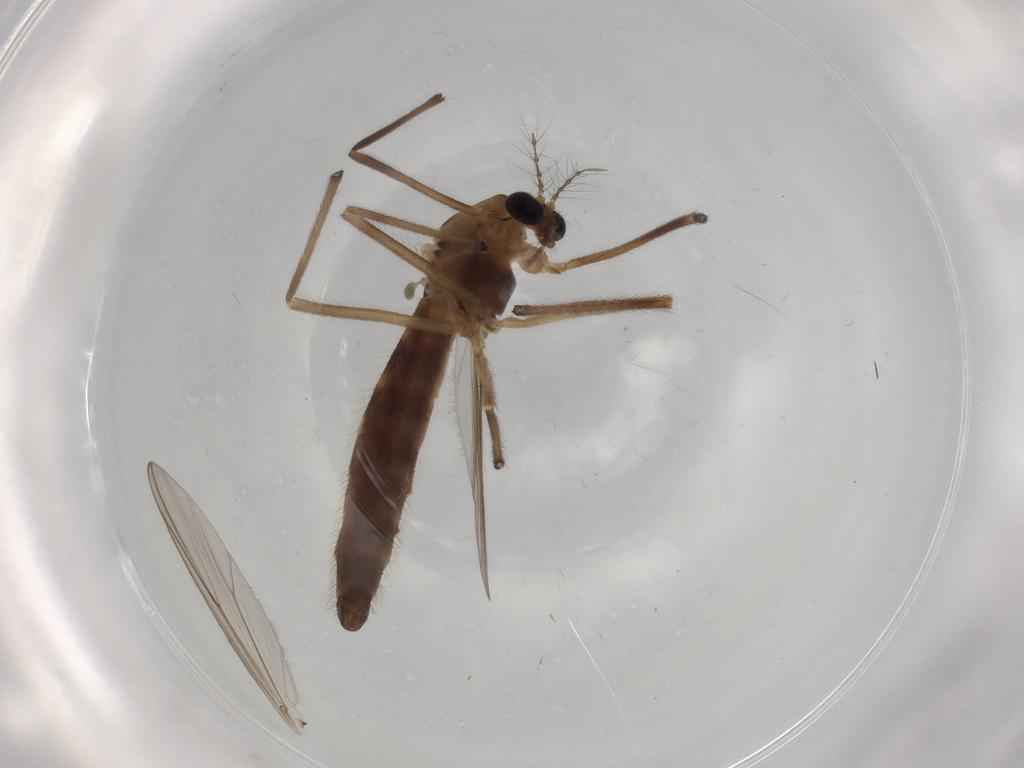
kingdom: Animalia
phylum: Arthropoda
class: Insecta
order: Diptera
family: Chironomidae
